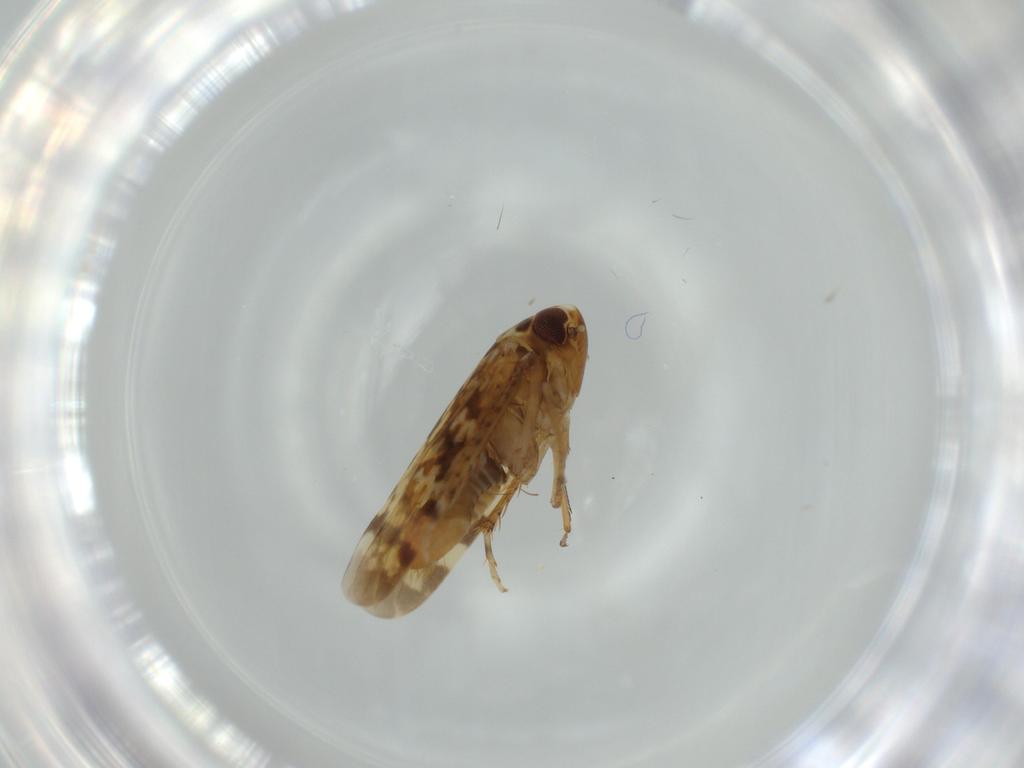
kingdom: Animalia
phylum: Arthropoda
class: Insecta
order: Hemiptera
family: Cicadellidae
